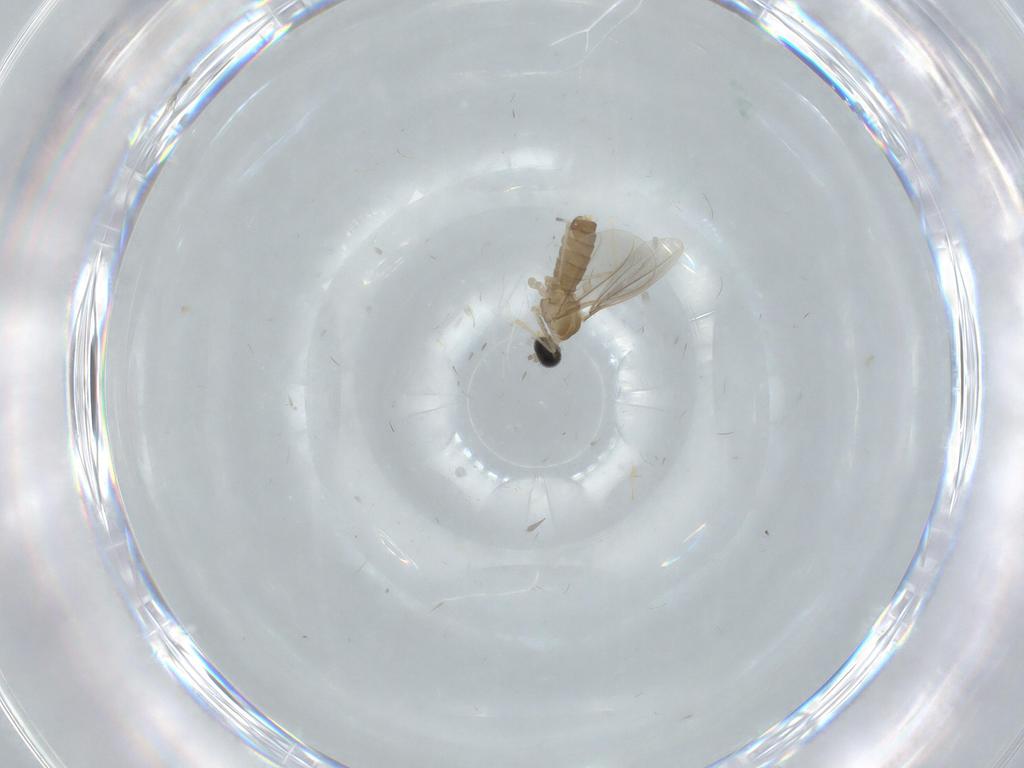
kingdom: Animalia
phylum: Arthropoda
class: Insecta
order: Diptera
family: Cecidomyiidae
